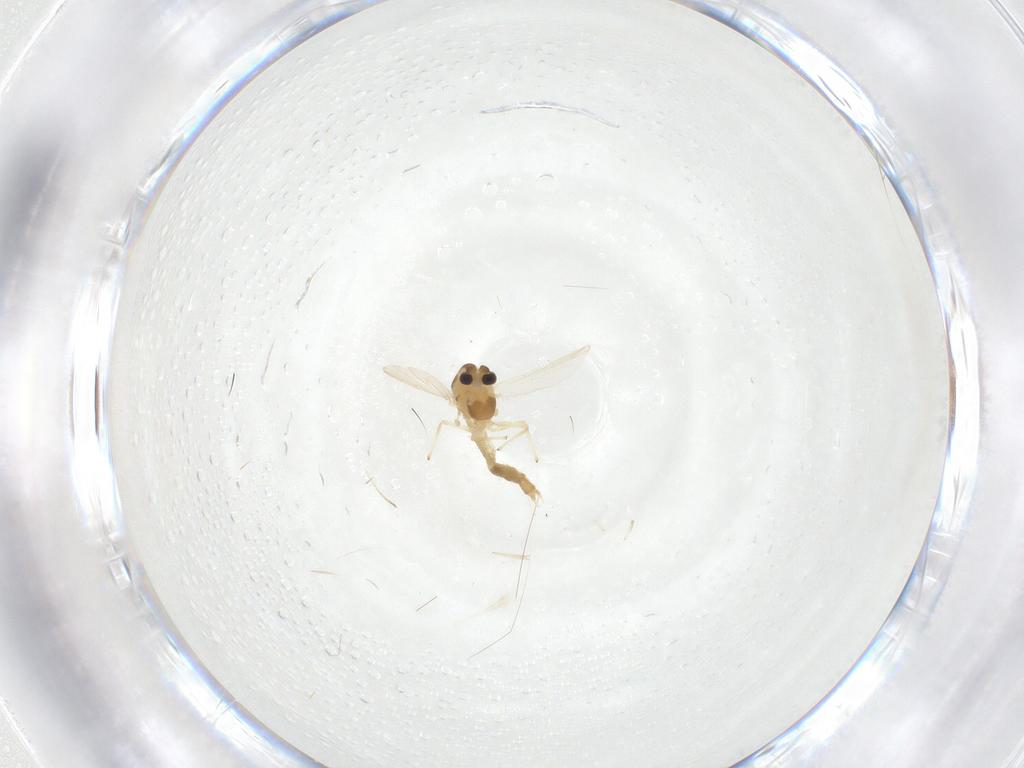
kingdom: Animalia
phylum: Arthropoda
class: Insecta
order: Diptera
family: Chironomidae
